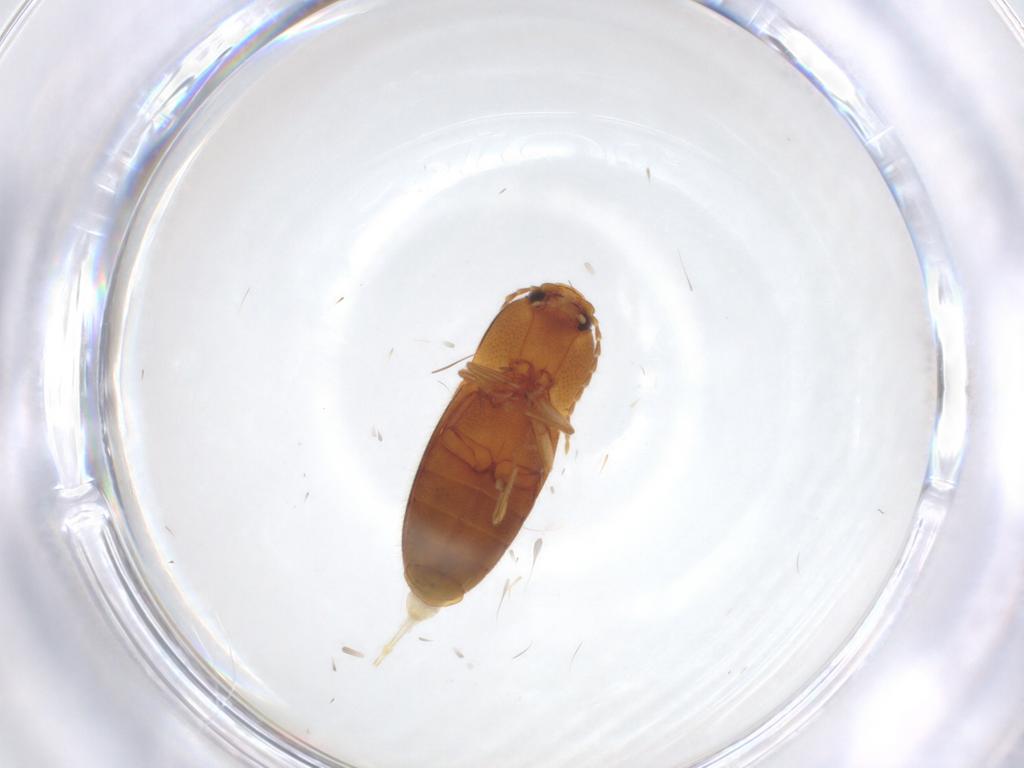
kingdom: Animalia
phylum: Arthropoda
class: Insecta
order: Coleoptera
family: Elateridae
